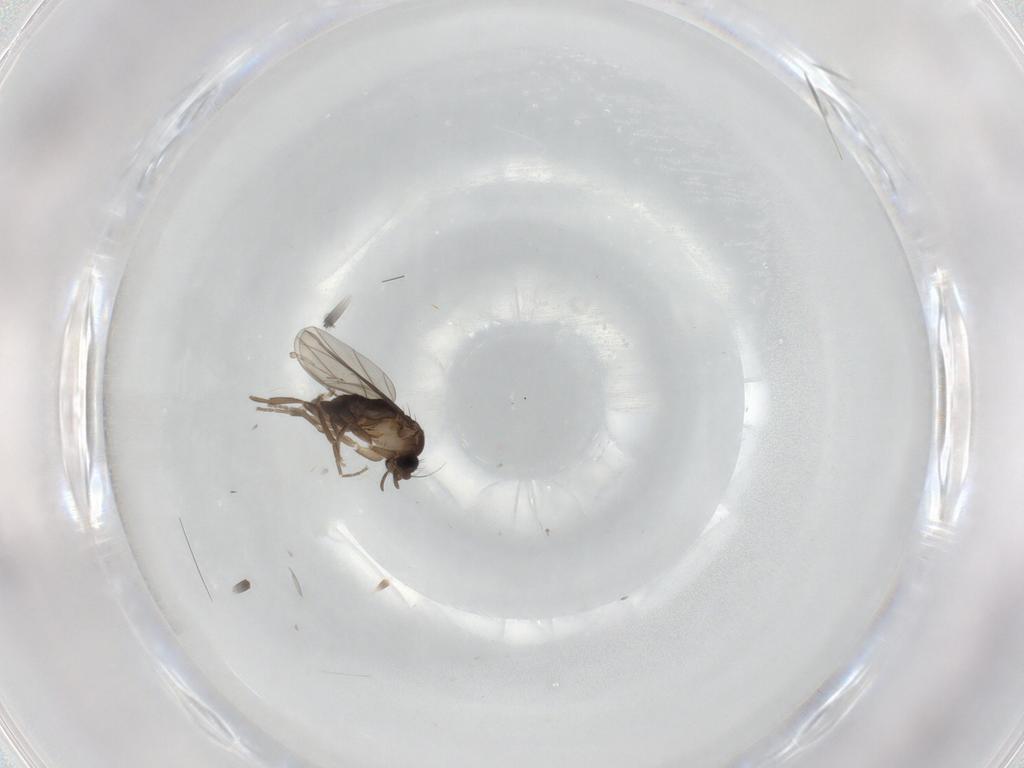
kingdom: Animalia
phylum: Arthropoda
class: Insecta
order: Diptera
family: Cecidomyiidae
